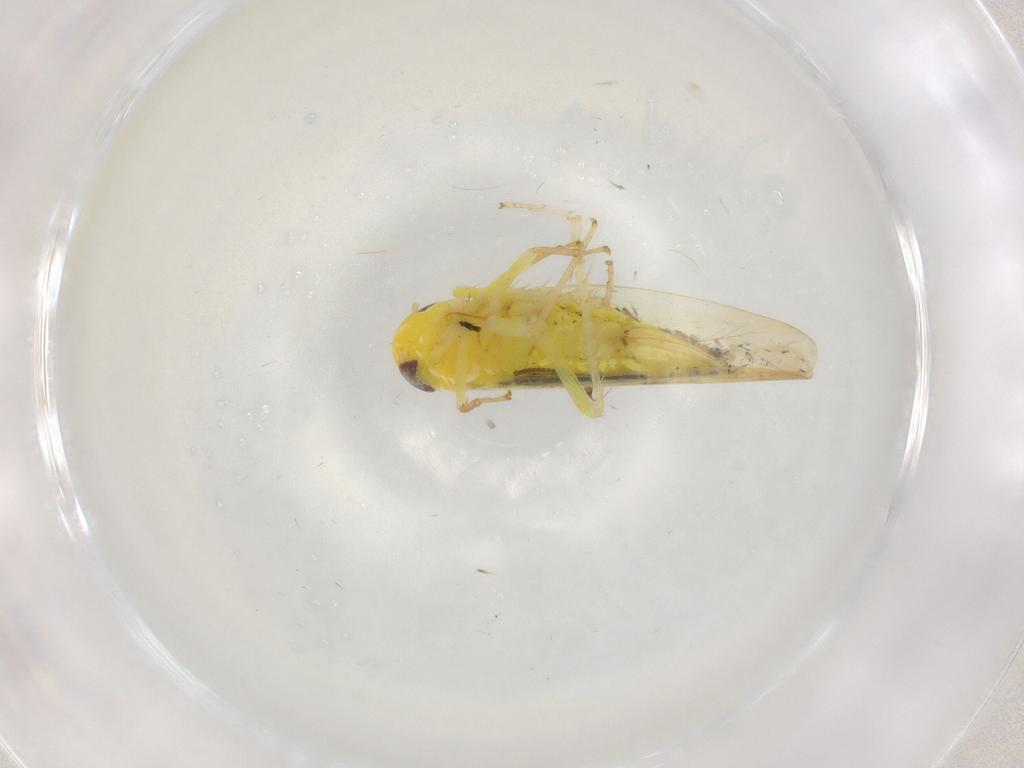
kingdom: Animalia
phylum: Arthropoda
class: Insecta
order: Hemiptera
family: Cicadellidae
